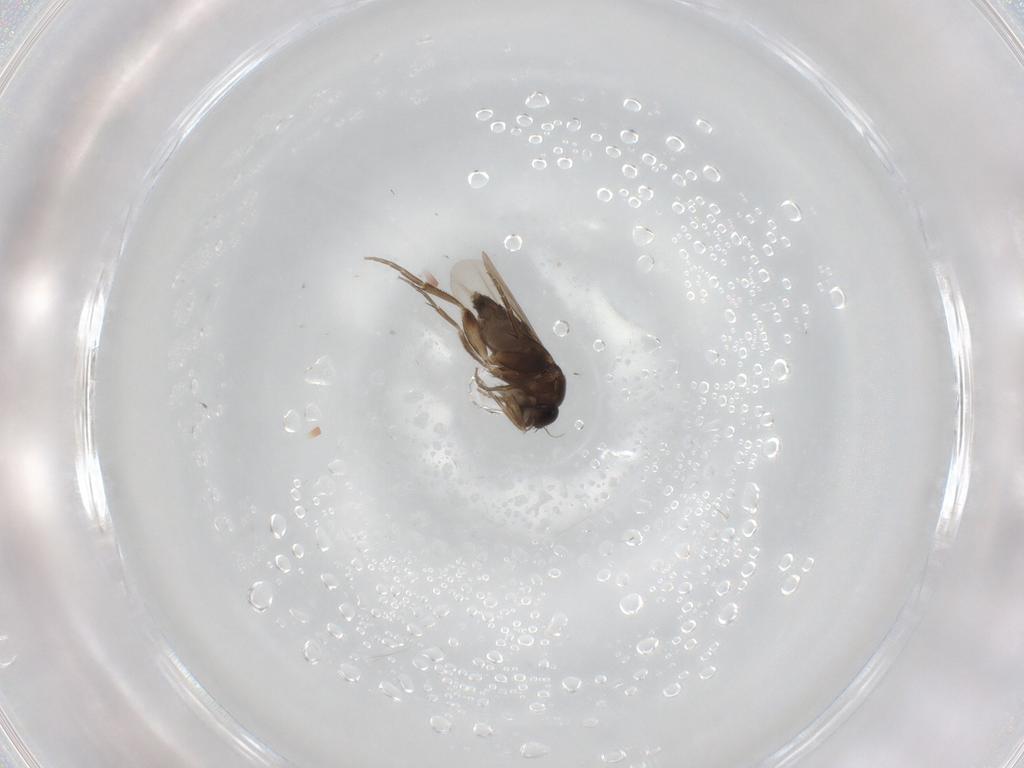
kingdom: Animalia
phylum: Arthropoda
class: Insecta
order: Diptera
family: Phoridae
